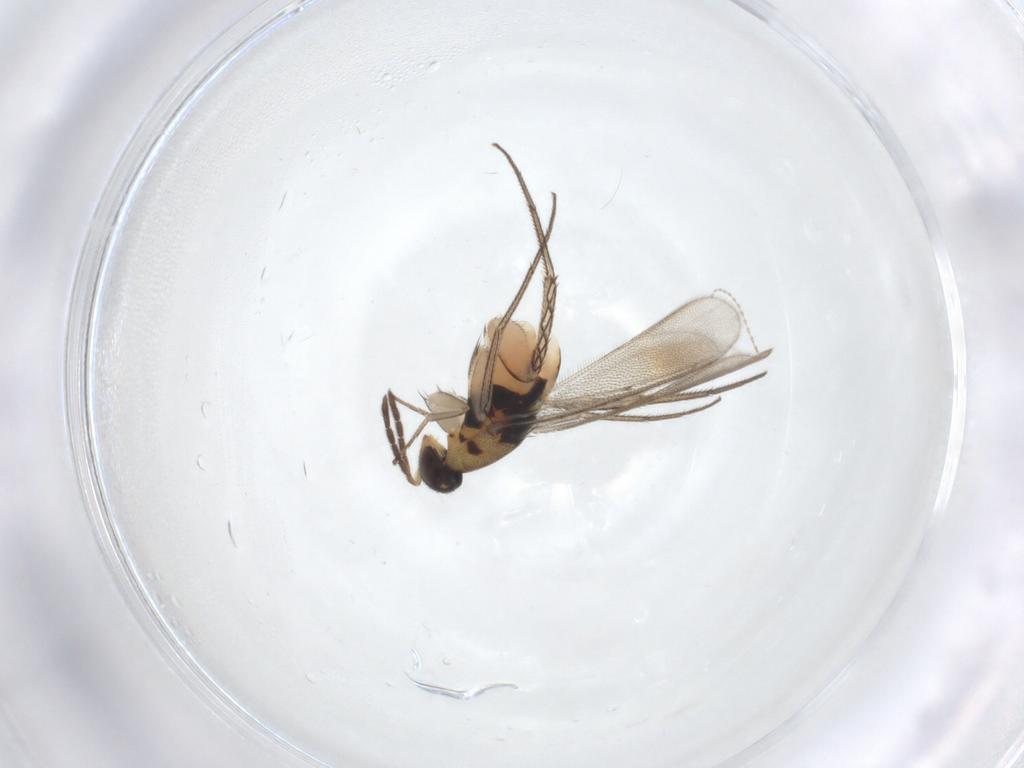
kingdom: Animalia
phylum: Arthropoda
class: Insecta
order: Hymenoptera
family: Eulophidae
